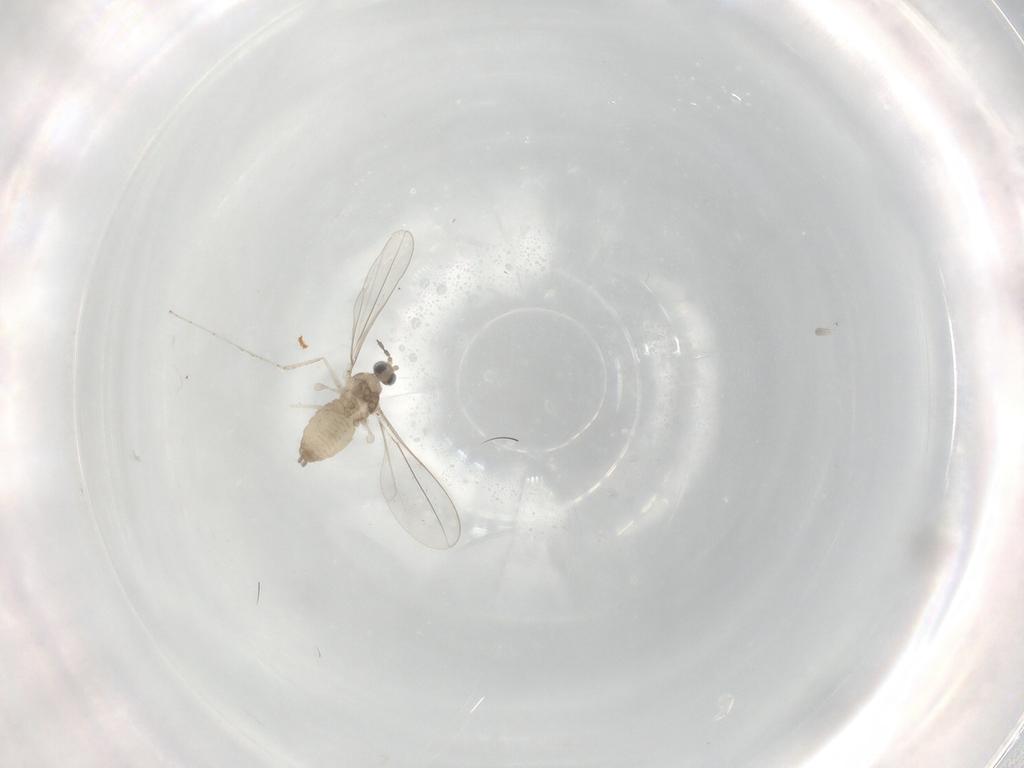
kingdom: Animalia
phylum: Arthropoda
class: Insecta
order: Diptera
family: Cecidomyiidae
